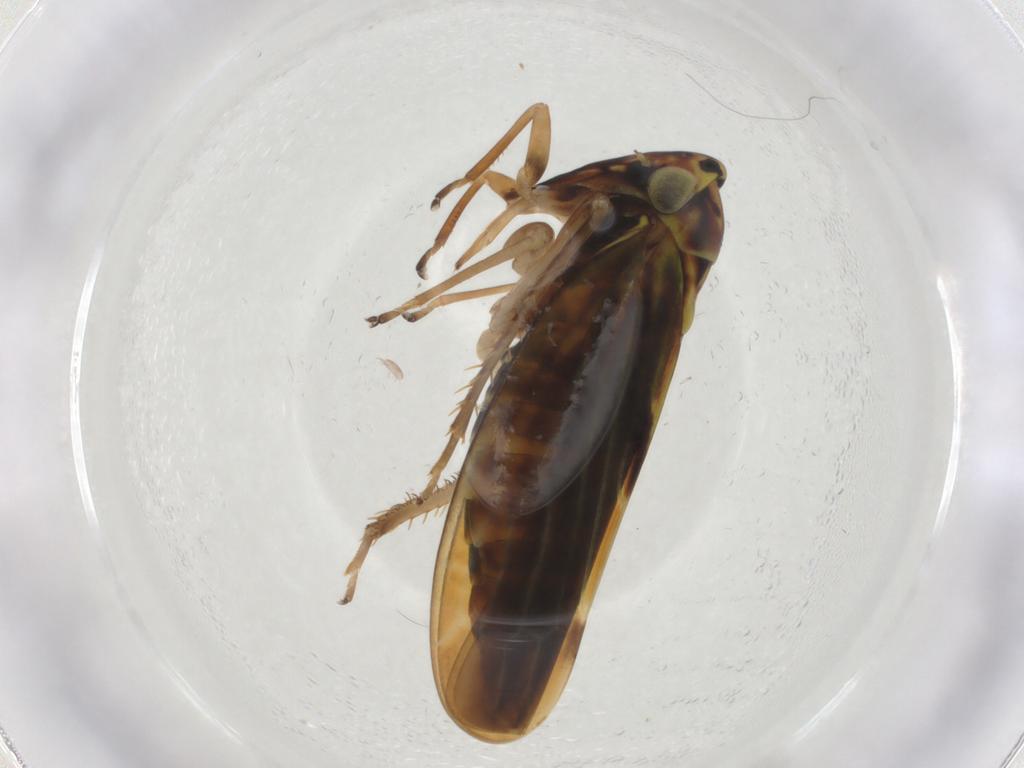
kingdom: Animalia
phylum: Arthropoda
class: Insecta
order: Hemiptera
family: Cicadellidae
